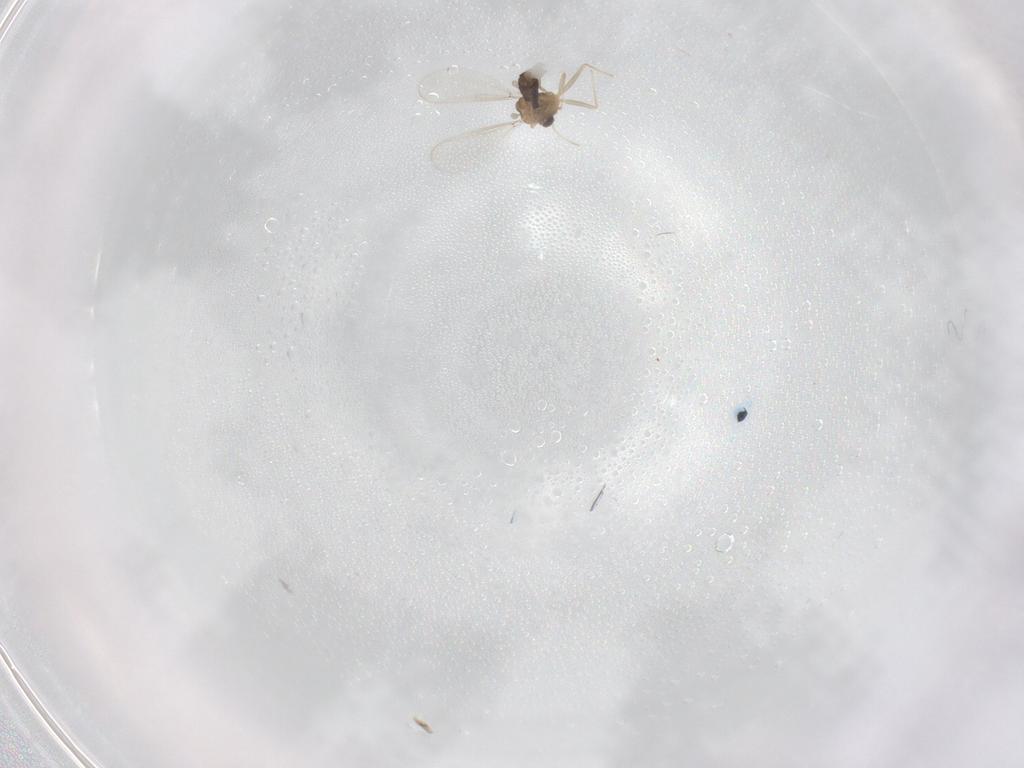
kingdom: Animalia
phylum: Arthropoda
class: Insecta
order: Diptera
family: Chironomidae
